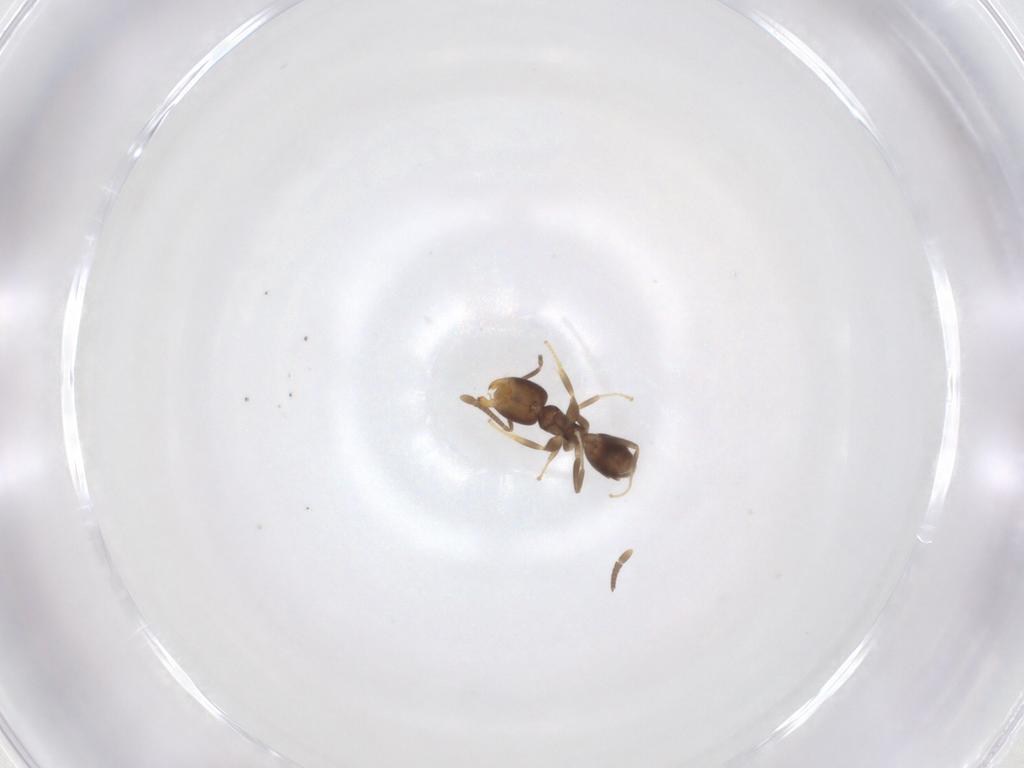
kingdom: Animalia
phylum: Arthropoda
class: Insecta
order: Hymenoptera
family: Formicidae
